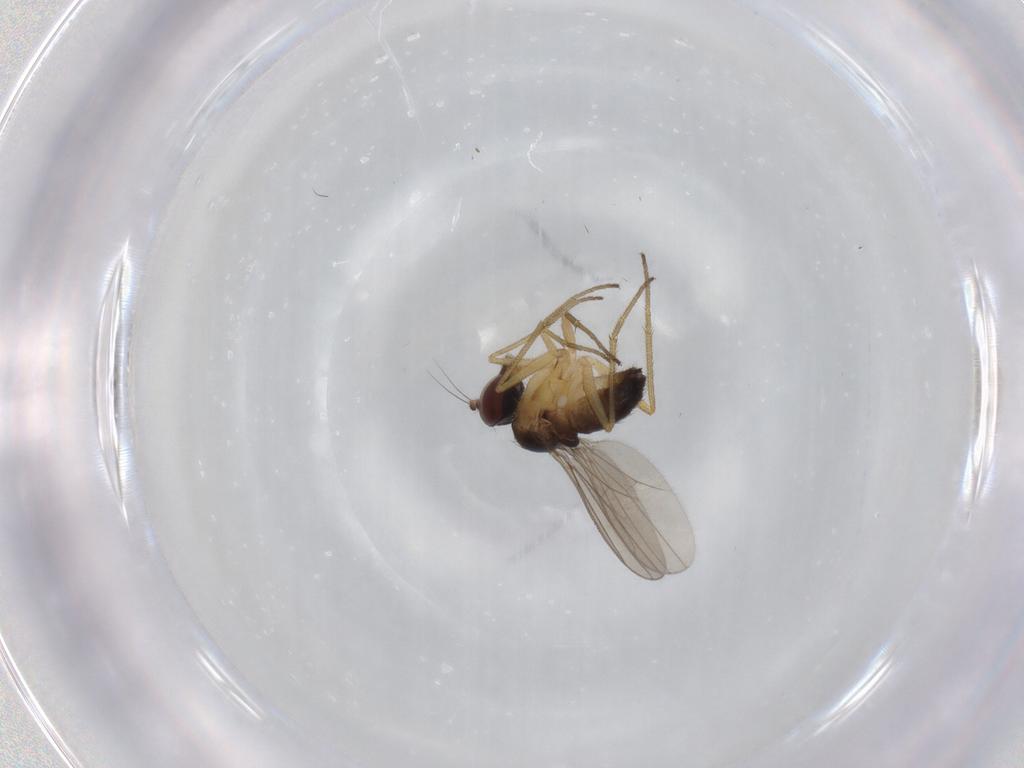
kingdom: Animalia
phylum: Arthropoda
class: Insecta
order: Diptera
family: Dolichopodidae
